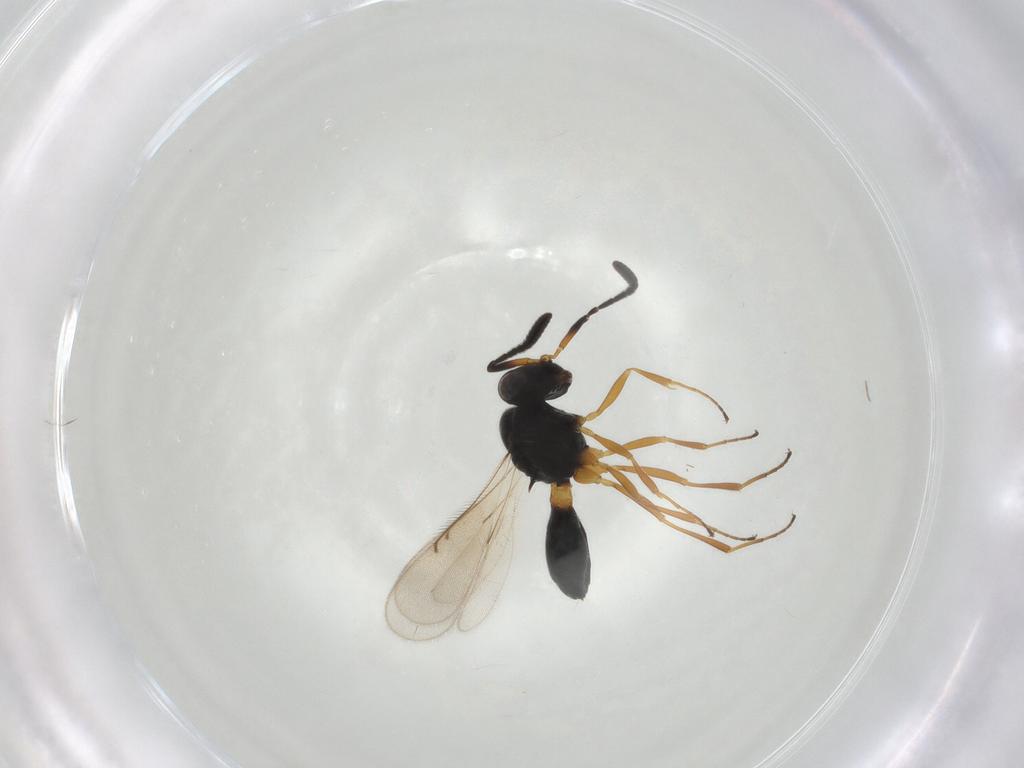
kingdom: Animalia
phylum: Arthropoda
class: Insecta
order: Hymenoptera
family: Scelionidae
